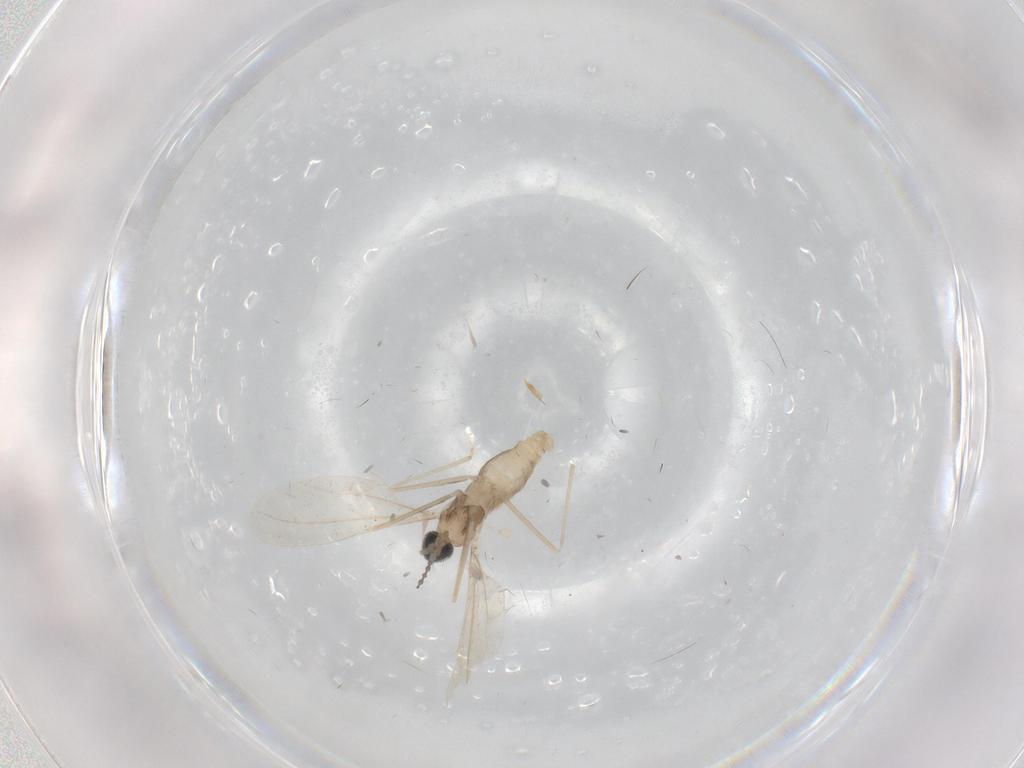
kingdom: Animalia
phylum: Arthropoda
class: Insecta
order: Diptera
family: Cecidomyiidae
